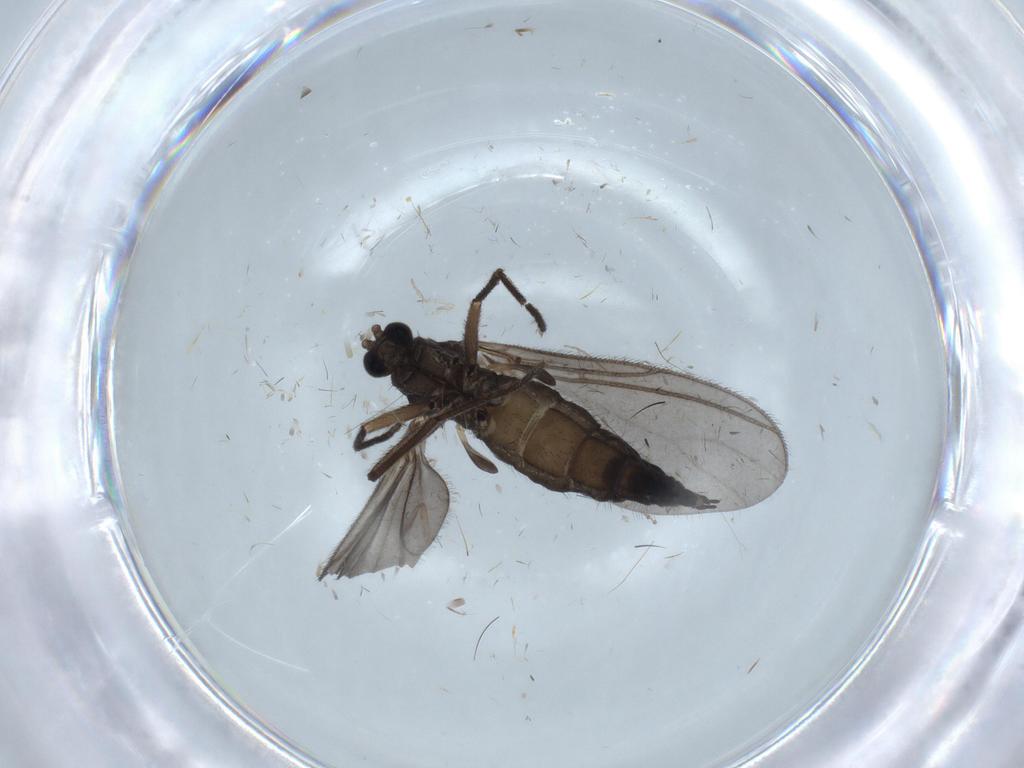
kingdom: Animalia
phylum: Arthropoda
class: Insecta
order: Diptera
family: Psychodidae
